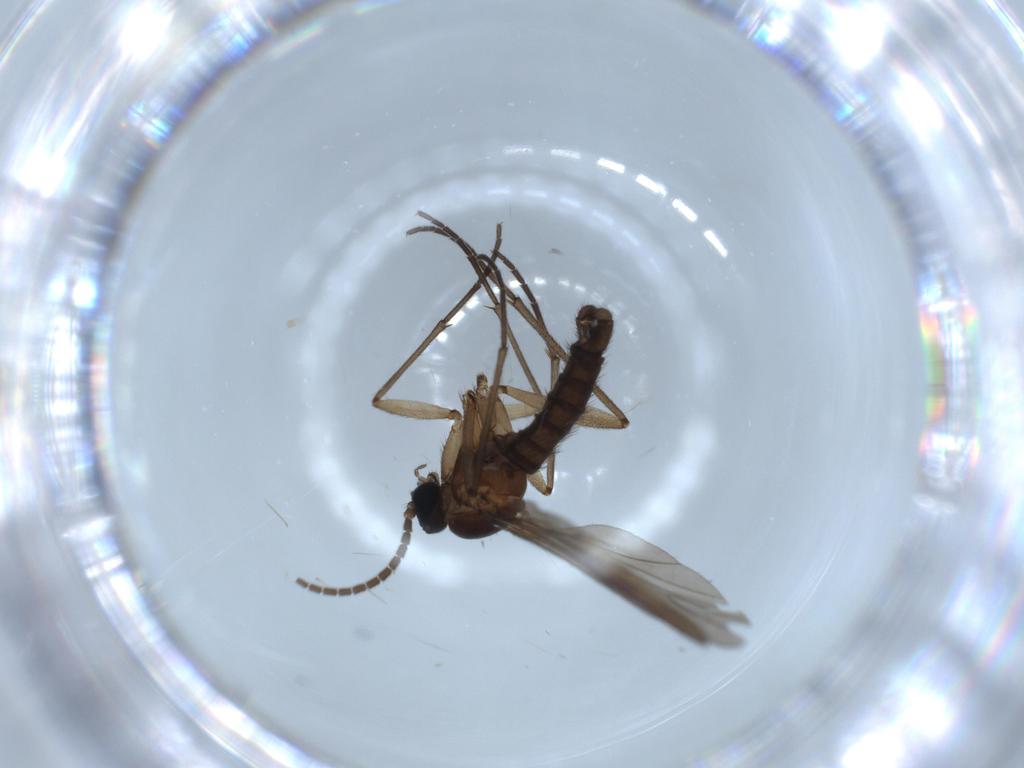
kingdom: Animalia
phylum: Arthropoda
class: Insecta
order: Diptera
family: Sciaridae
